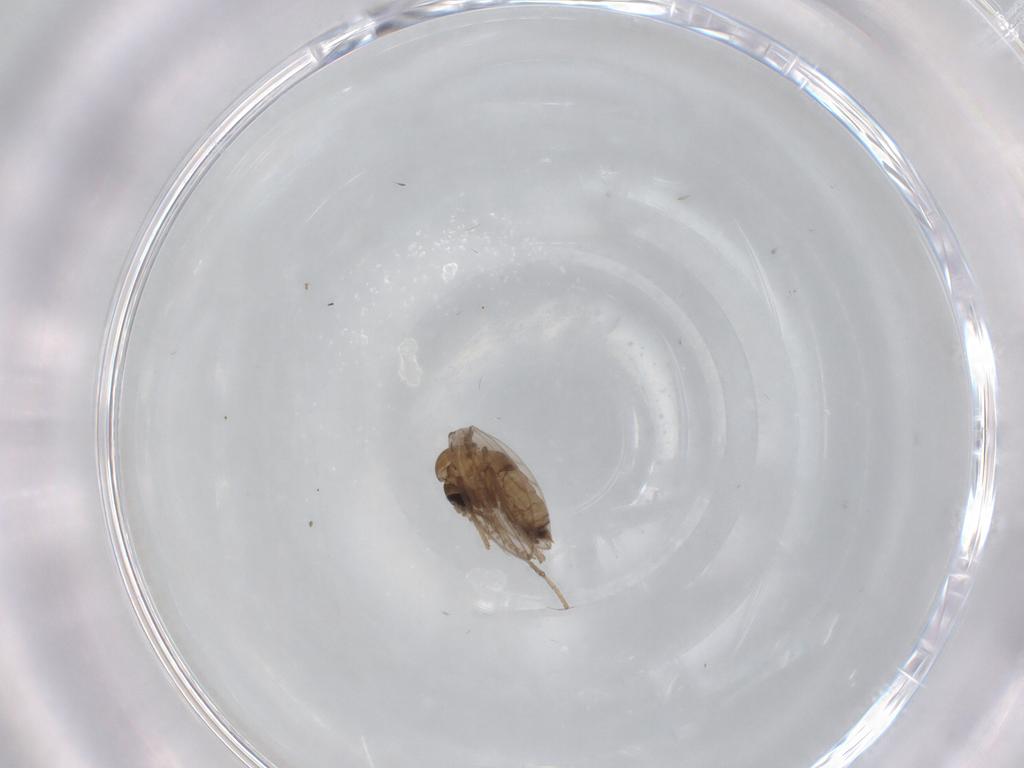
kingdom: Animalia
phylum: Arthropoda
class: Insecta
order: Diptera
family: Psychodidae
